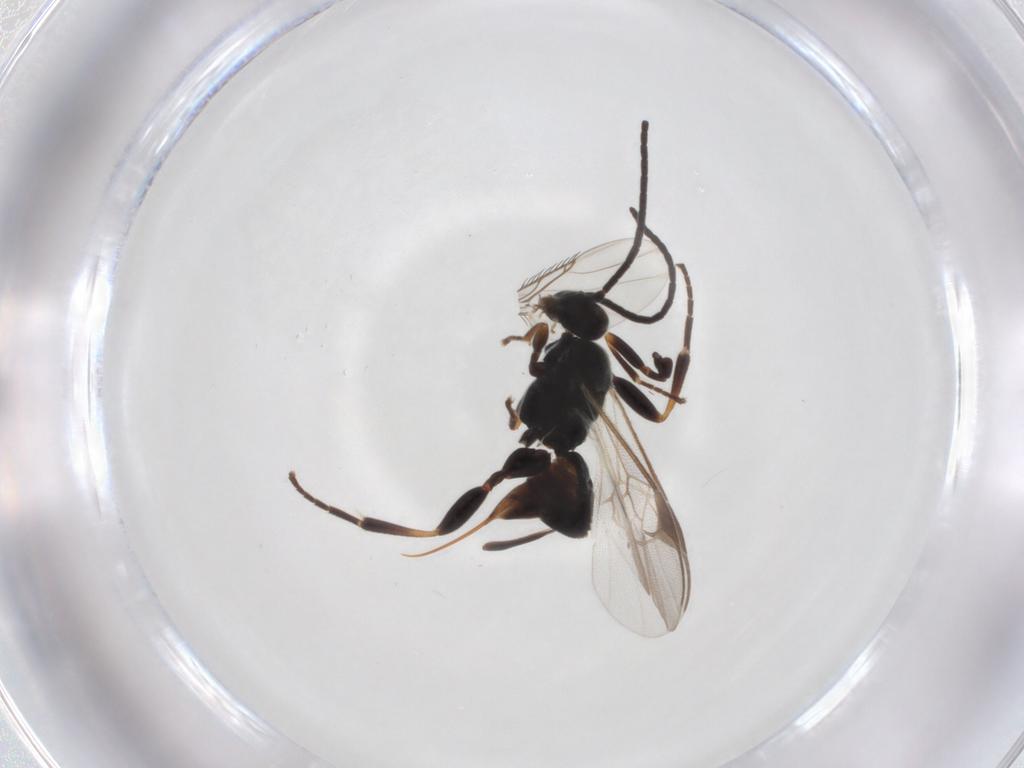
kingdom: Animalia
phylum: Arthropoda
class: Insecta
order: Hymenoptera
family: Braconidae
